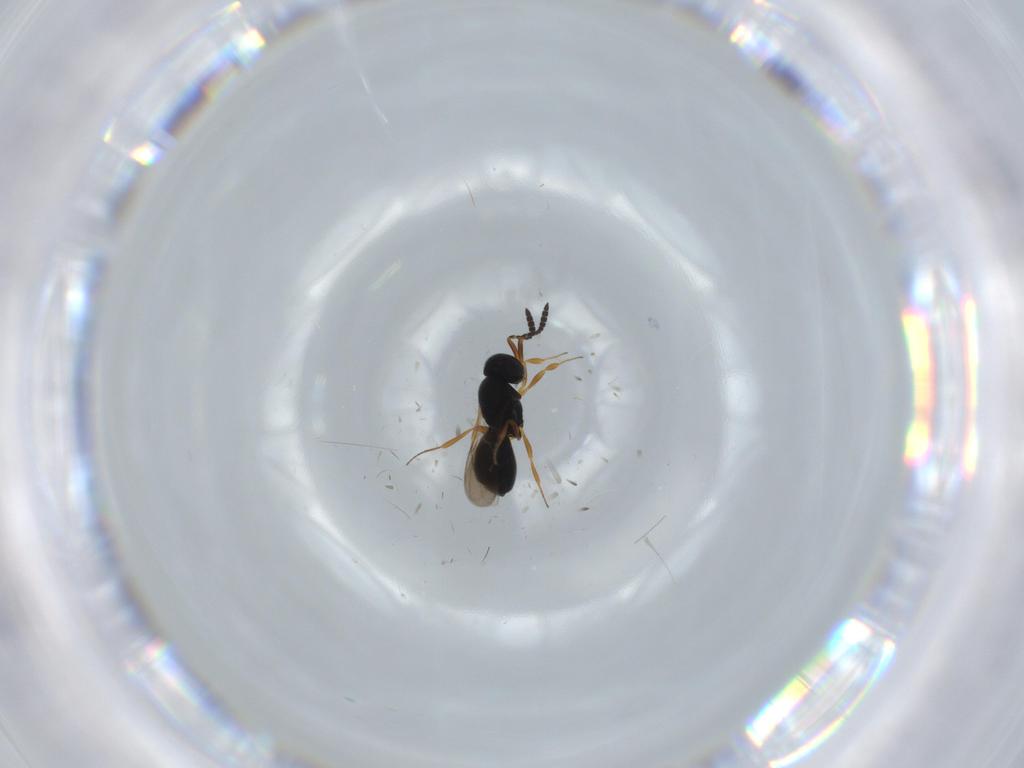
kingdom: Animalia
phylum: Arthropoda
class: Insecta
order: Hymenoptera
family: Scelionidae
